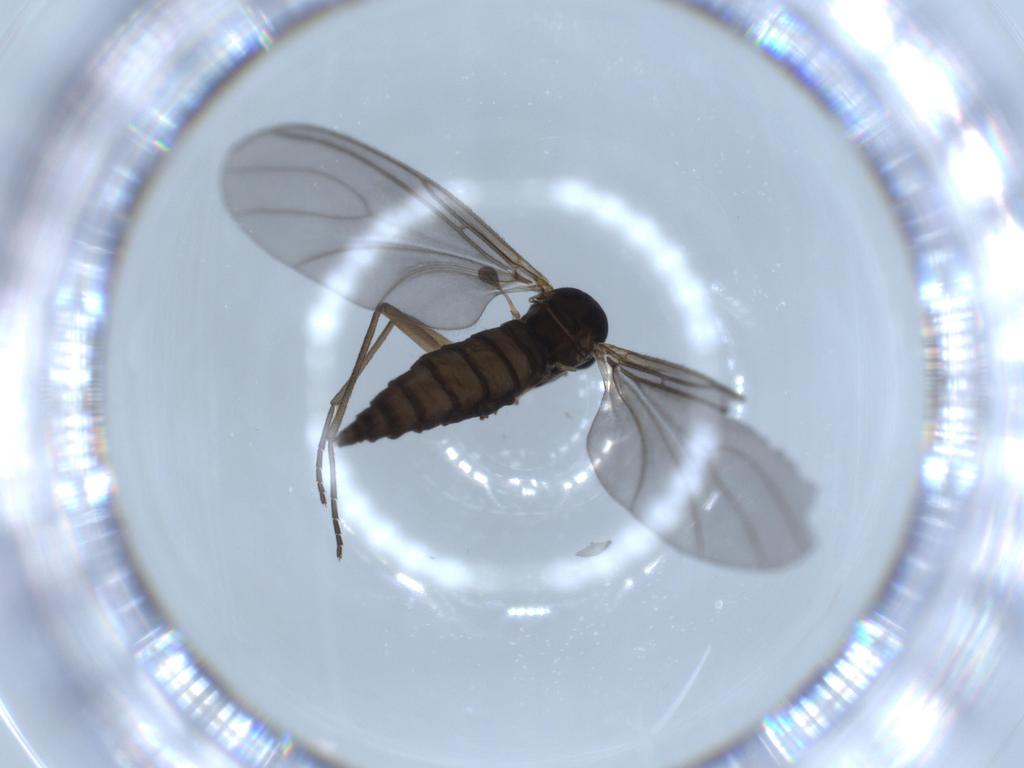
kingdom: Animalia
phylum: Arthropoda
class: Insecta
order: Diptera
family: Sciaridae
